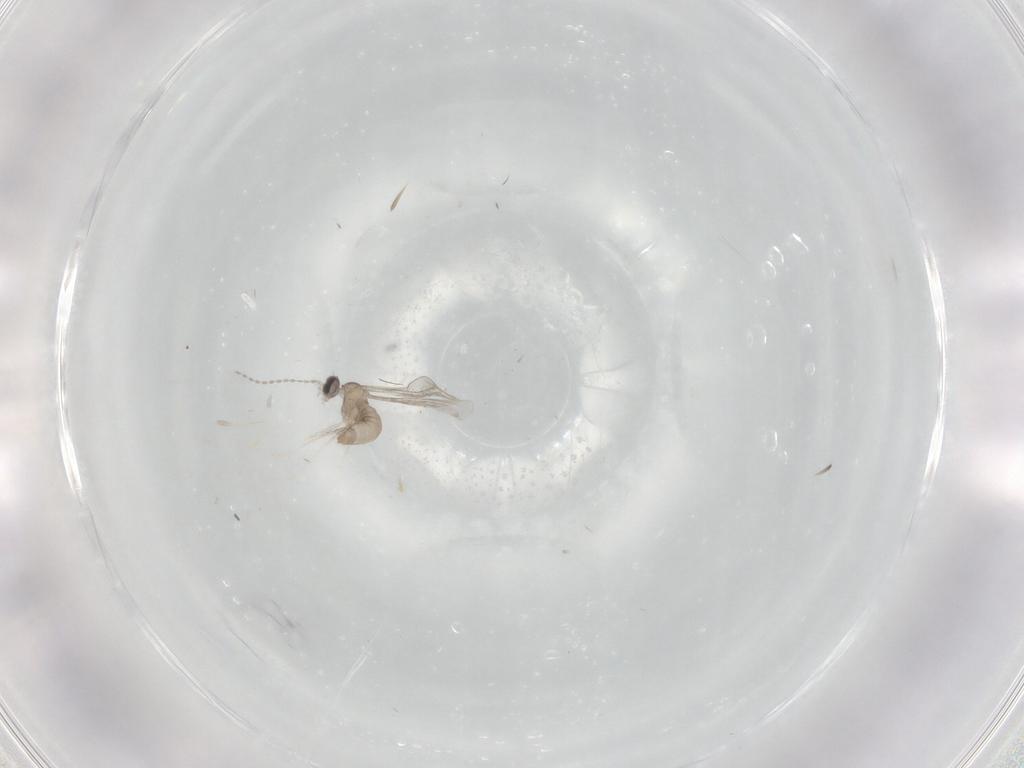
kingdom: Animalia
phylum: Arthropoda
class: Insecta
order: Diptera
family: Cecidomyiidae
